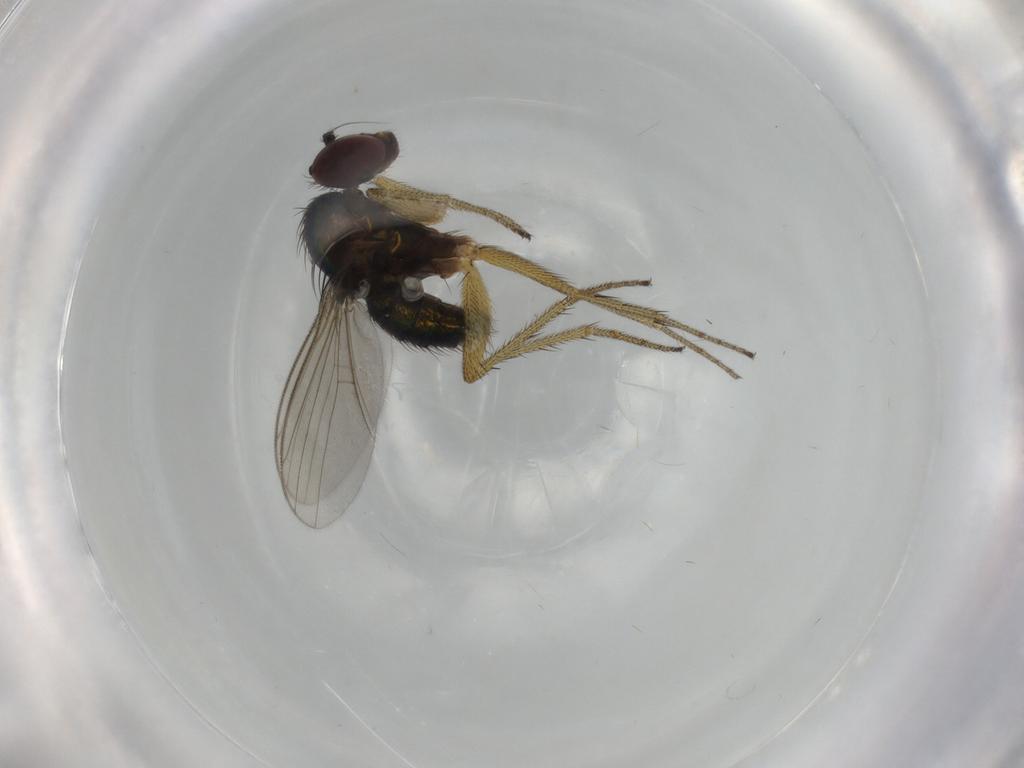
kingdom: Animalia
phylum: Arthropoda
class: Insecta
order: Diptera
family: Dolichopodidae
